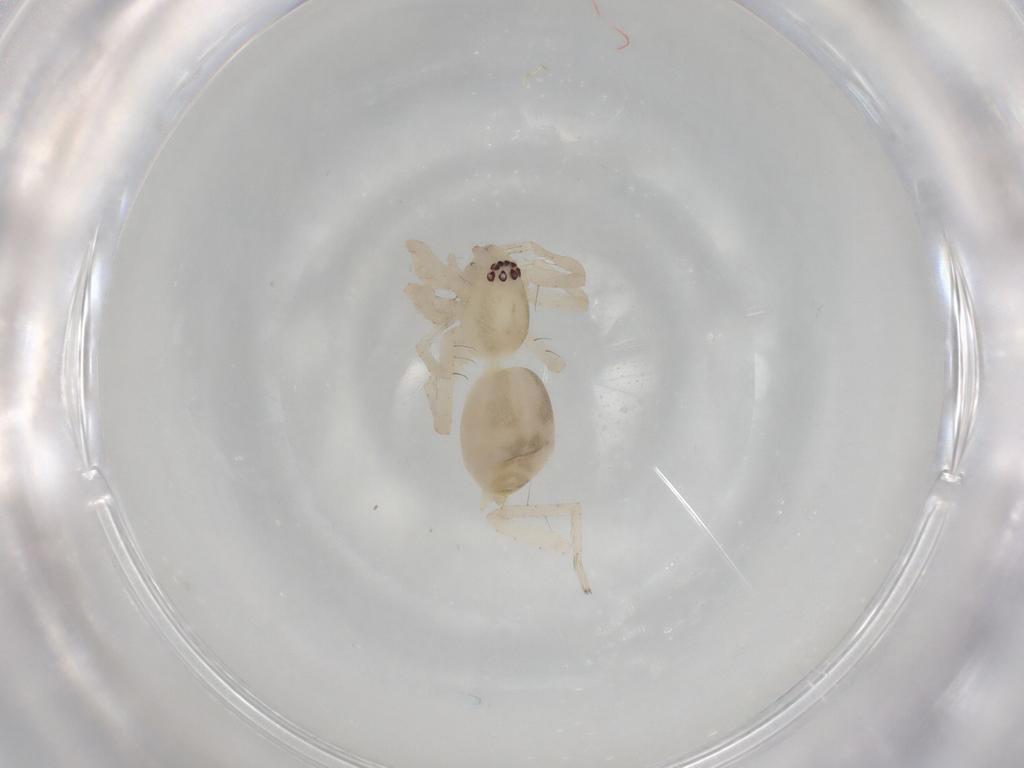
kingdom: Animalia
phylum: Arthropoda
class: Arachnida
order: Araneae
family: Anyphaenidae
